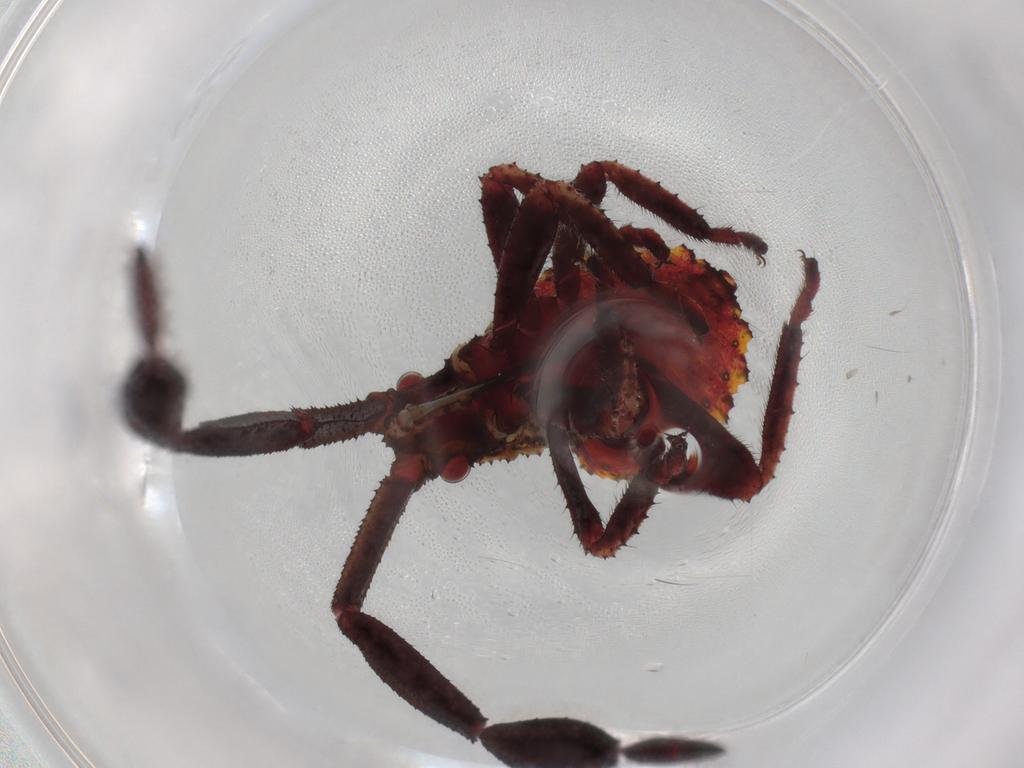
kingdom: Animalia
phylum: Arthropoda
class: Insecta
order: Hemiptera
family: Coreidae
